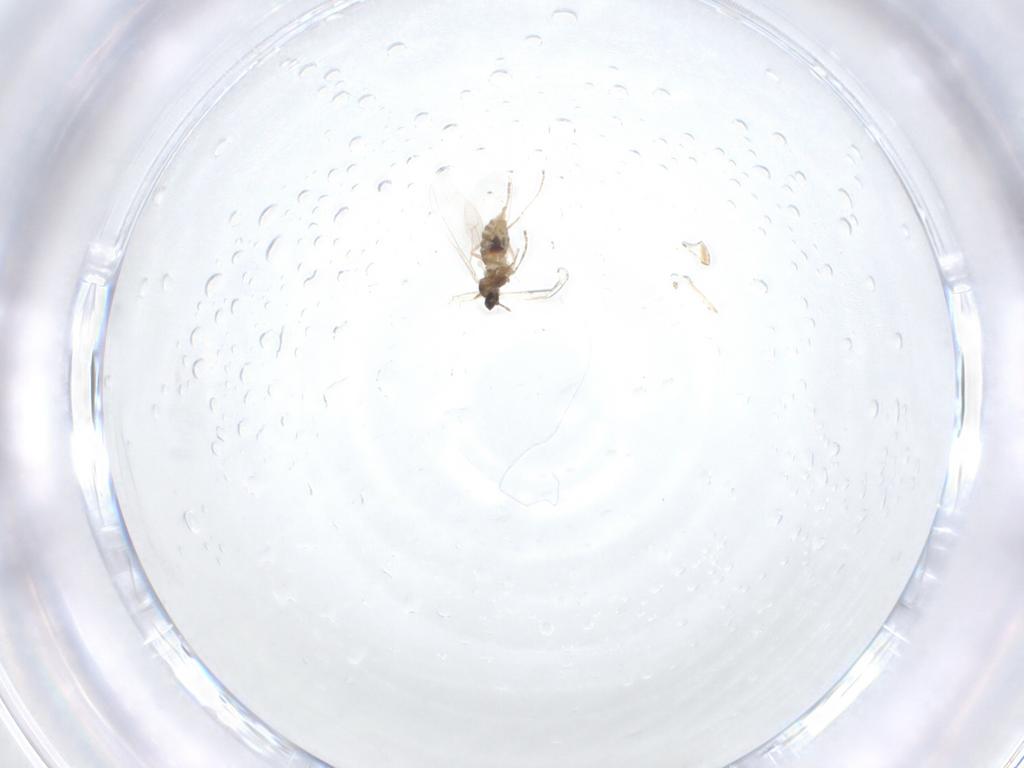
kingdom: Animalia
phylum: Arthropoda
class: Insecta
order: Diptera
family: Cecidomyiidae
